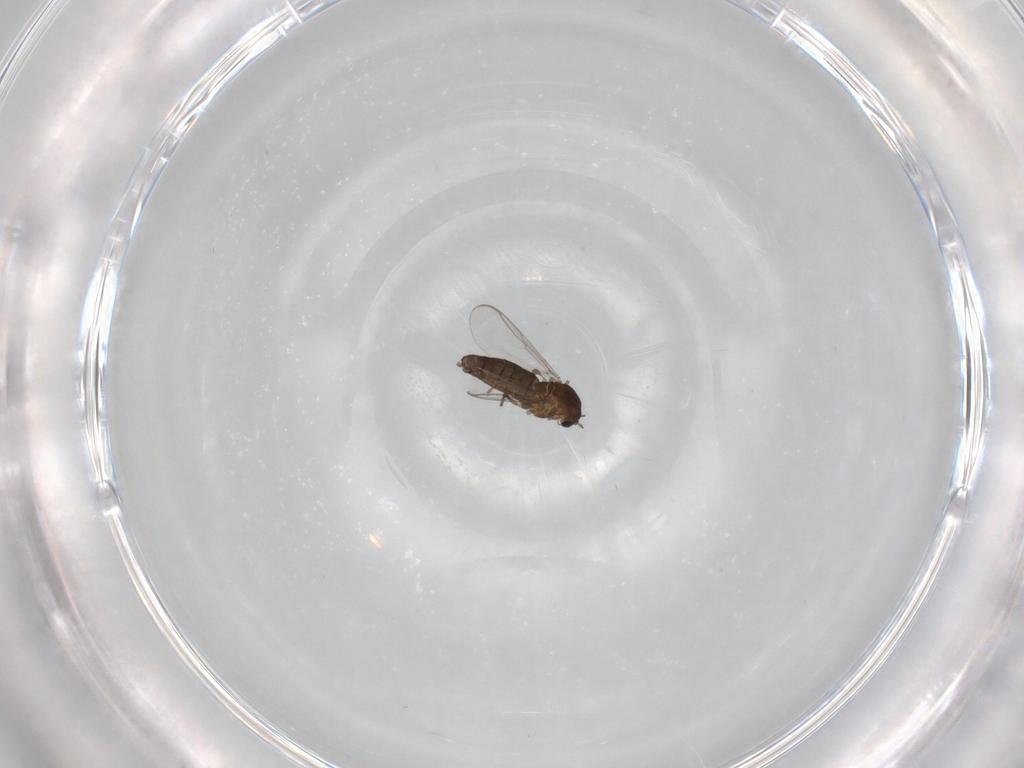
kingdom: Animalia
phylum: Arthropoda
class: Insecta
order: Diptera
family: Chironomidae
